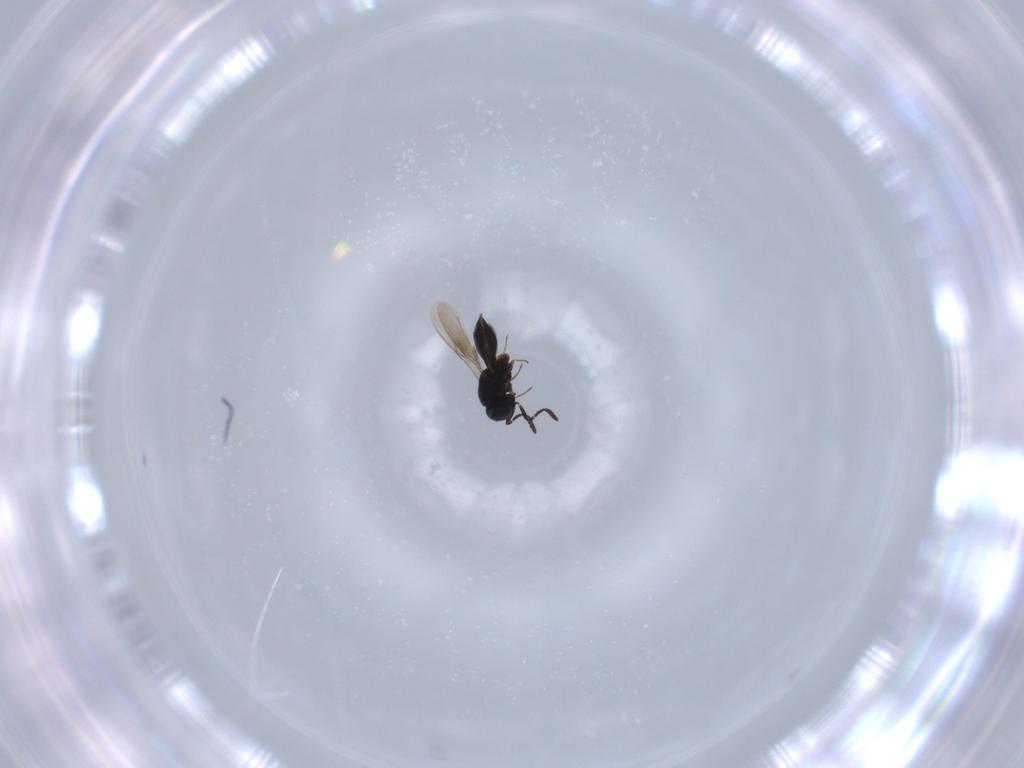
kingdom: Animalia
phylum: Arthropoda
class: Insecta
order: Hymenoptera
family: Scelionidae
